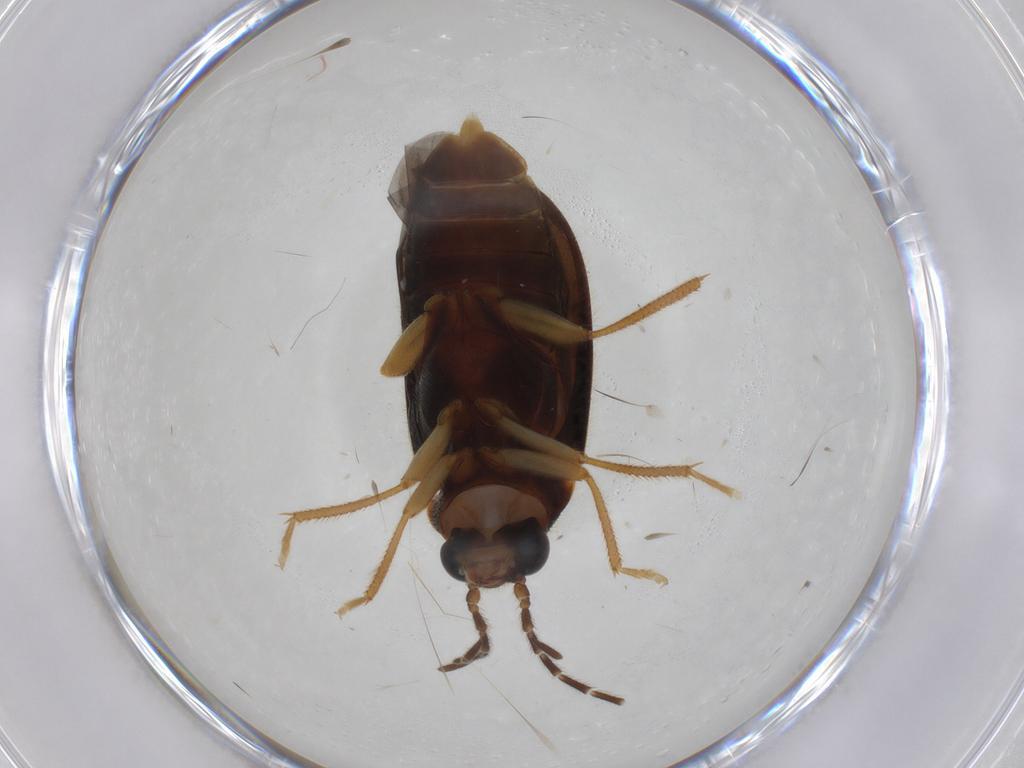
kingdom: Animalia
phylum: Arthropoda
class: Insecta
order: Coleoptera
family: Ptilodactylidae
